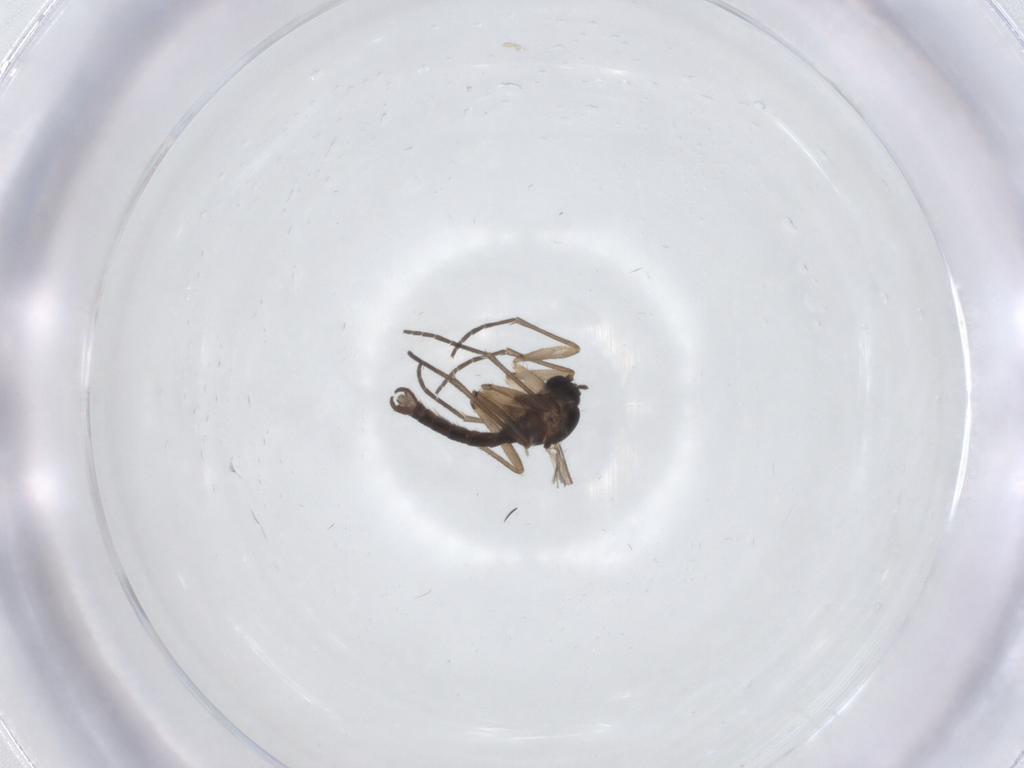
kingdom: Animalia
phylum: Arthropoda
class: Insecta
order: Diptera
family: Sciaridae
